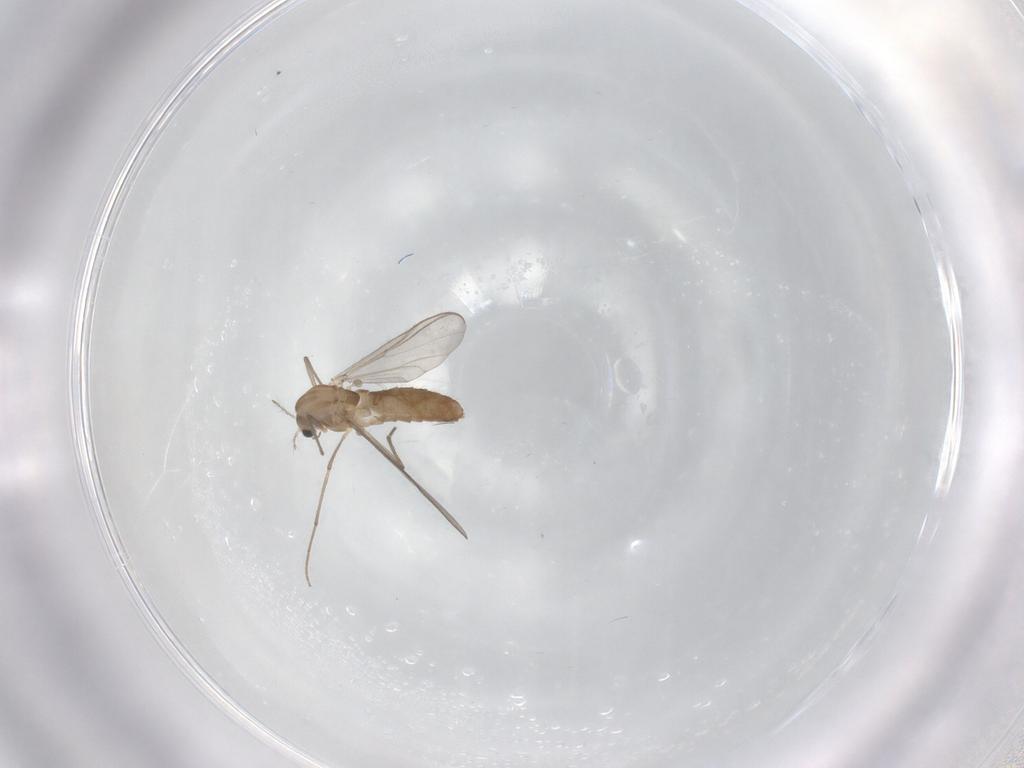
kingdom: Animalia
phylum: Arthropoda
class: Insecta
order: Diptera
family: Chironomidae
